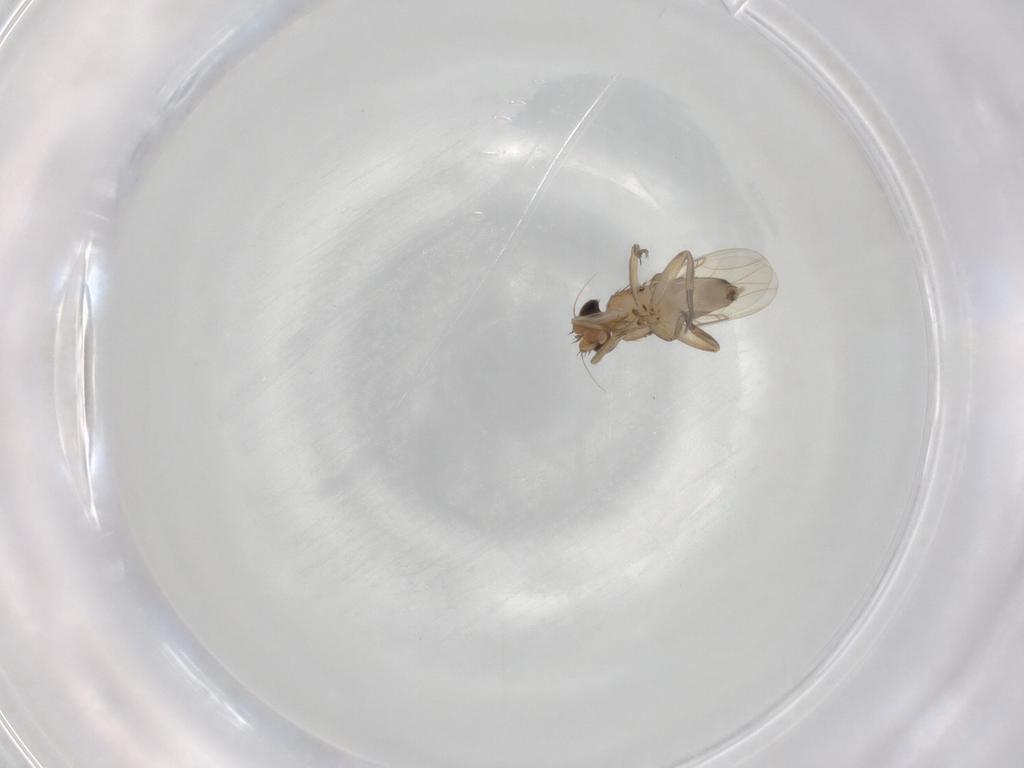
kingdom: Animalia
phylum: Arthropoda
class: Insecta
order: Diptera
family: Phoridae
